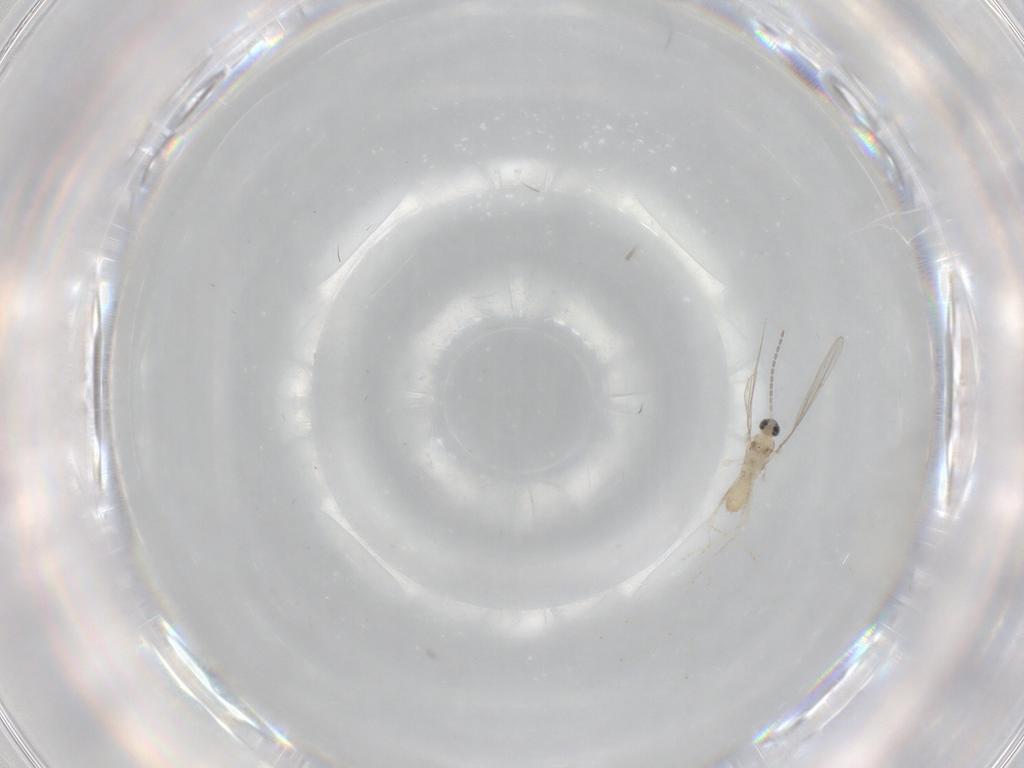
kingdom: Animalia
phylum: Arthropoda
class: Insecta
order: Diptera
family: Cecidomyiidae
